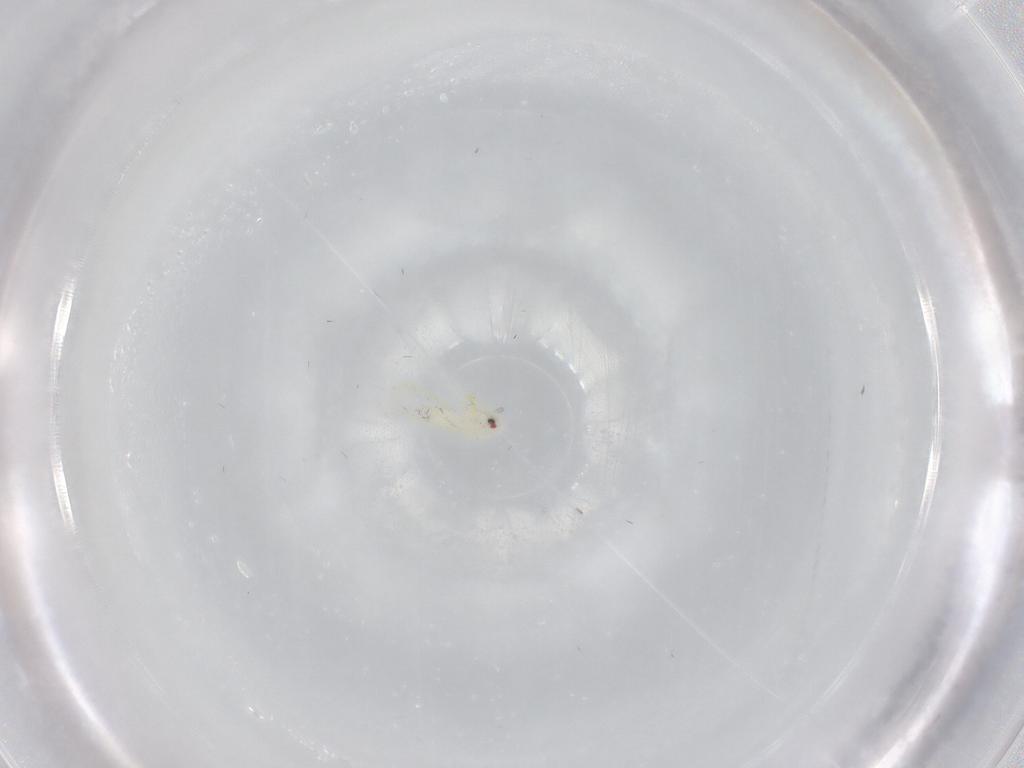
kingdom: Animalia
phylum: Arthropoda
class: Insecta
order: Hemiptera
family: Aleyrodidae
